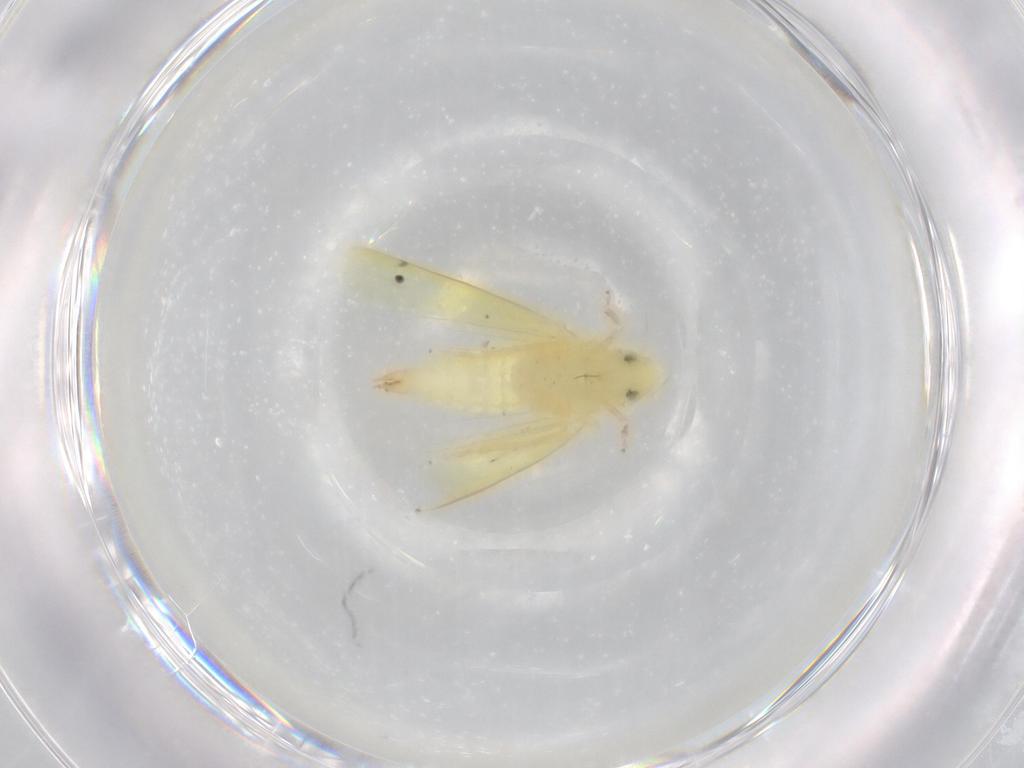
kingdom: Animalia
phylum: Arthropoda
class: Insecta
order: Hemiptera
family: Cicadellidae
